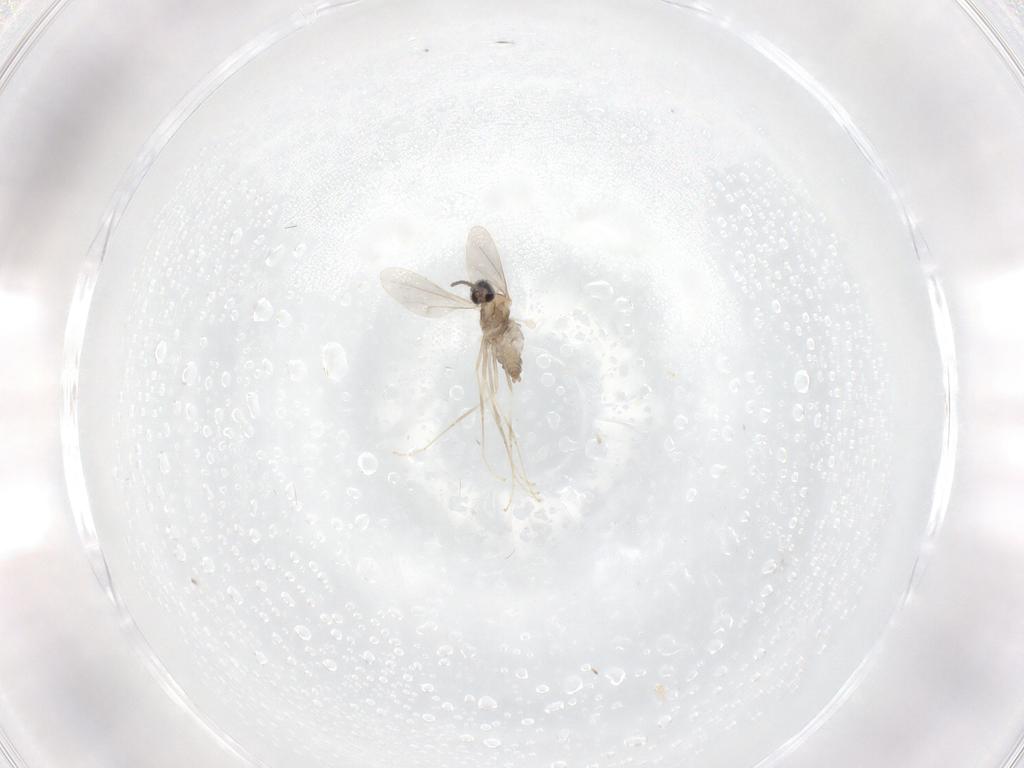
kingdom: Animalia
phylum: Arthropoda
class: Insecta
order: Diptera
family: Cecidomyiidae
